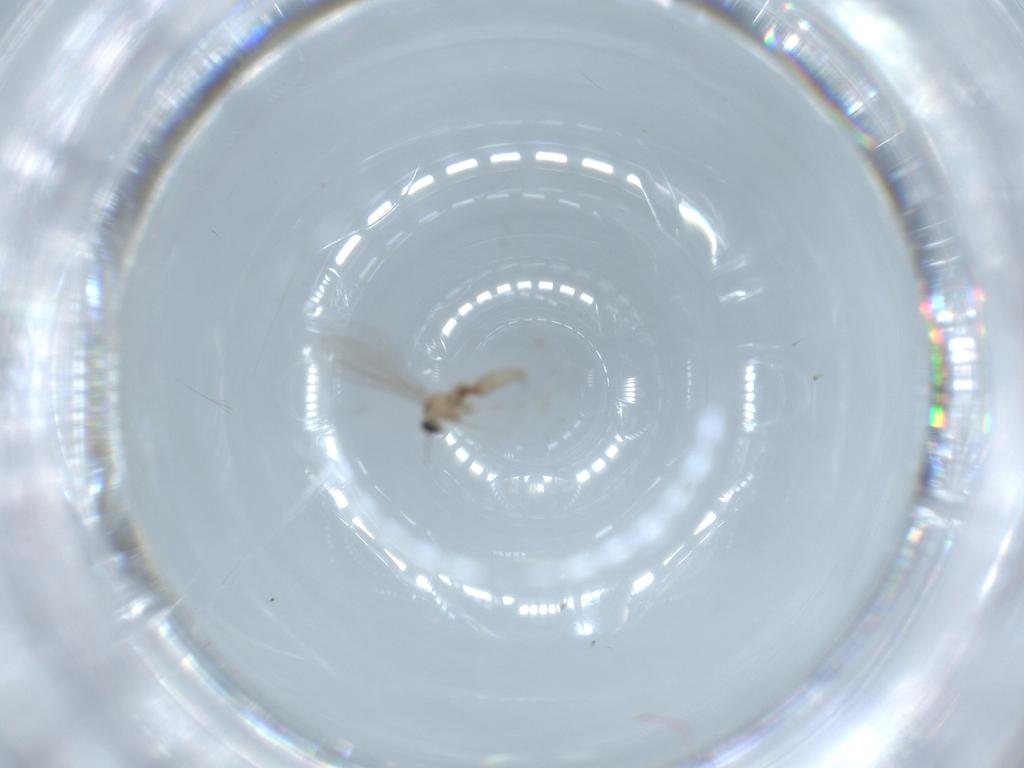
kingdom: Animalia
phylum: Arthropoda
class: Insecta
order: Diptera
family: Cecidomyiidae
